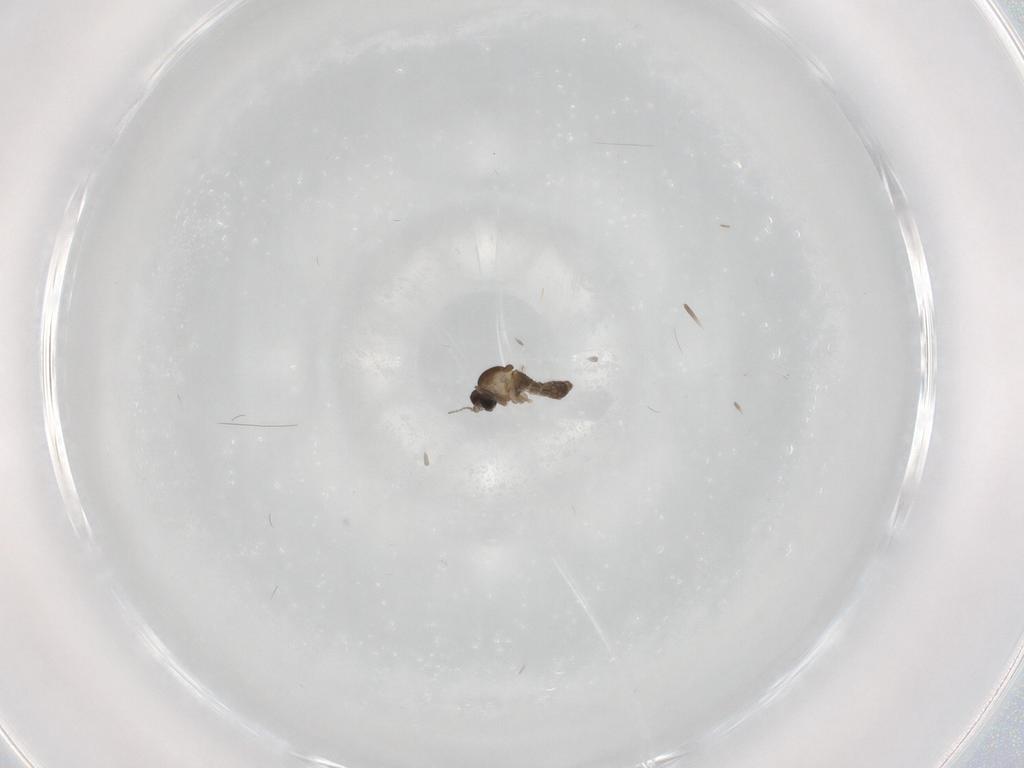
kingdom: Animalia
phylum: Arthropoda
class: Insecta
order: Diptera
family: Cecidomyiidae
